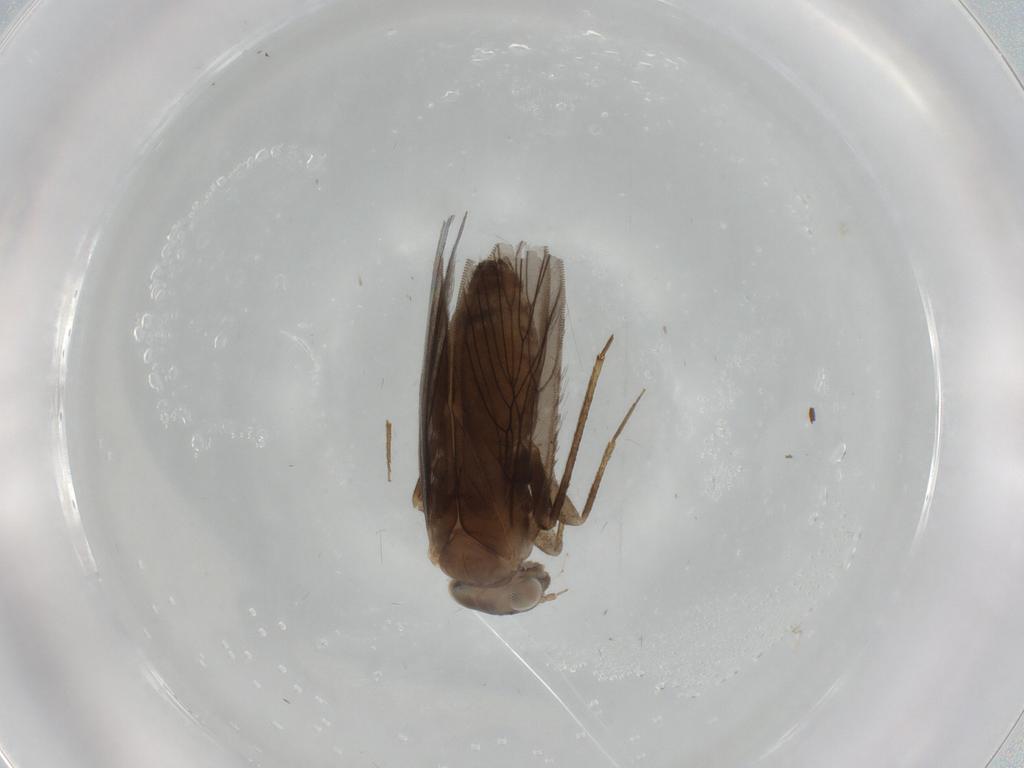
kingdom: Animalia
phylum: Arthropoda
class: Insecta
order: Psocodea
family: Lepidopsocidae
